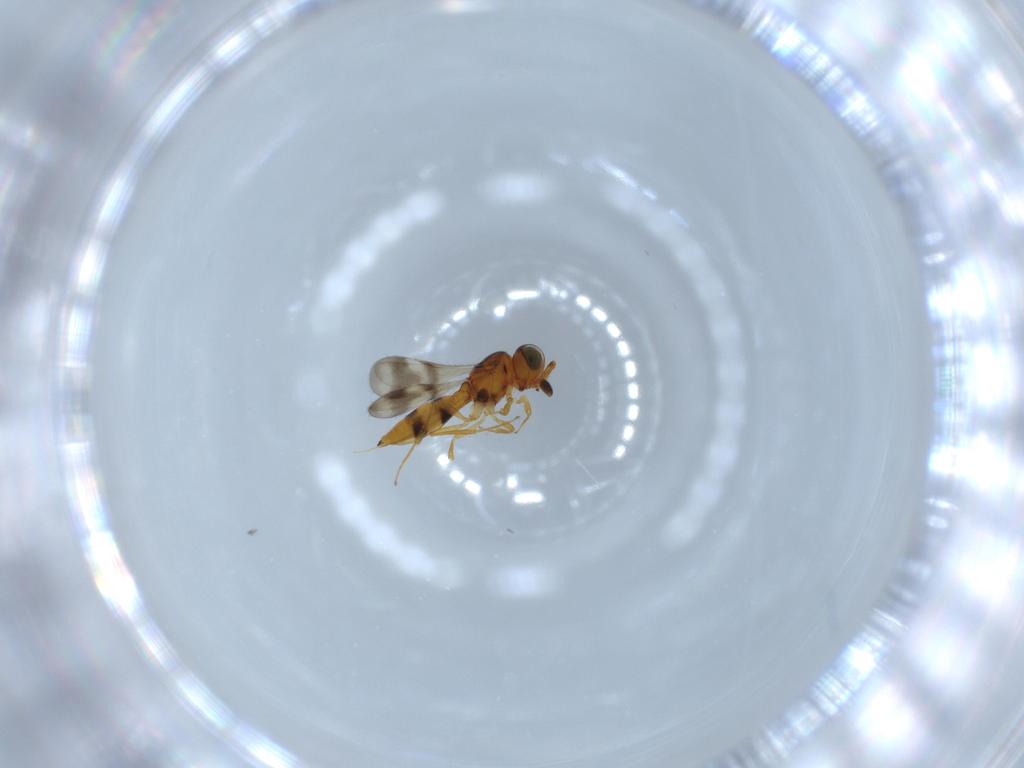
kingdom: Animalia
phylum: Arthropoda
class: Insecta
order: Hymenoptera
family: Scelionidae
